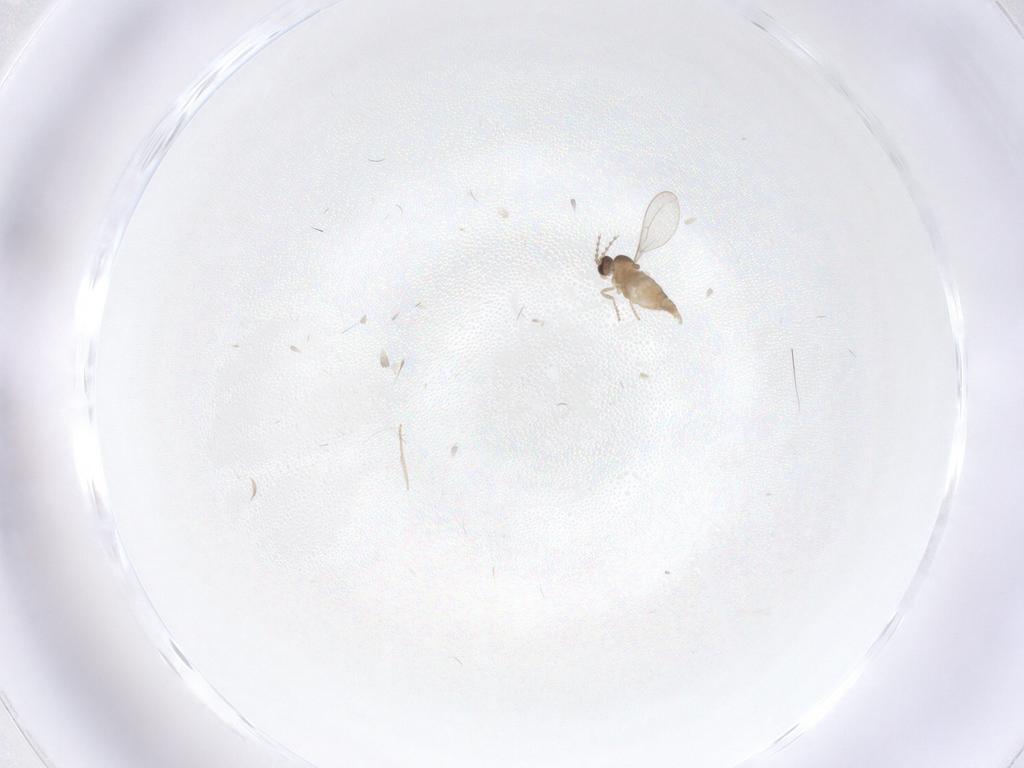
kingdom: Animalia
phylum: Arthropoda
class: Insecta
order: Diptera
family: Cecidomyiidae
